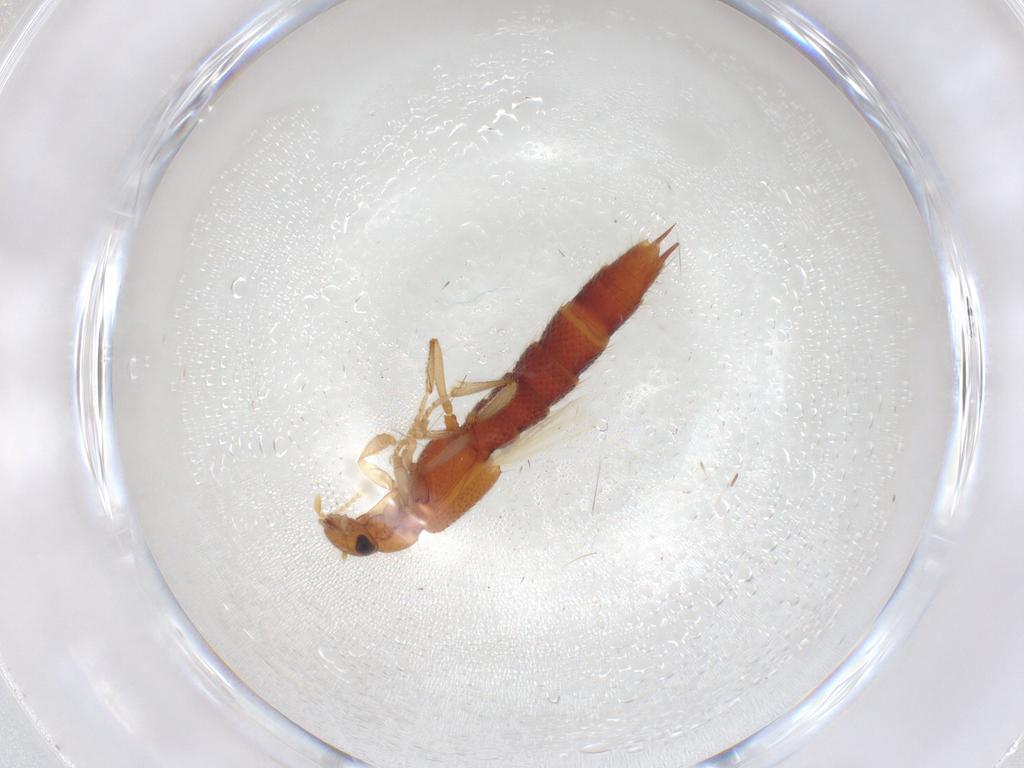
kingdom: Animalia
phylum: Arthropoda
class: Insecta
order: Coleoptera
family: Staphylinidae
